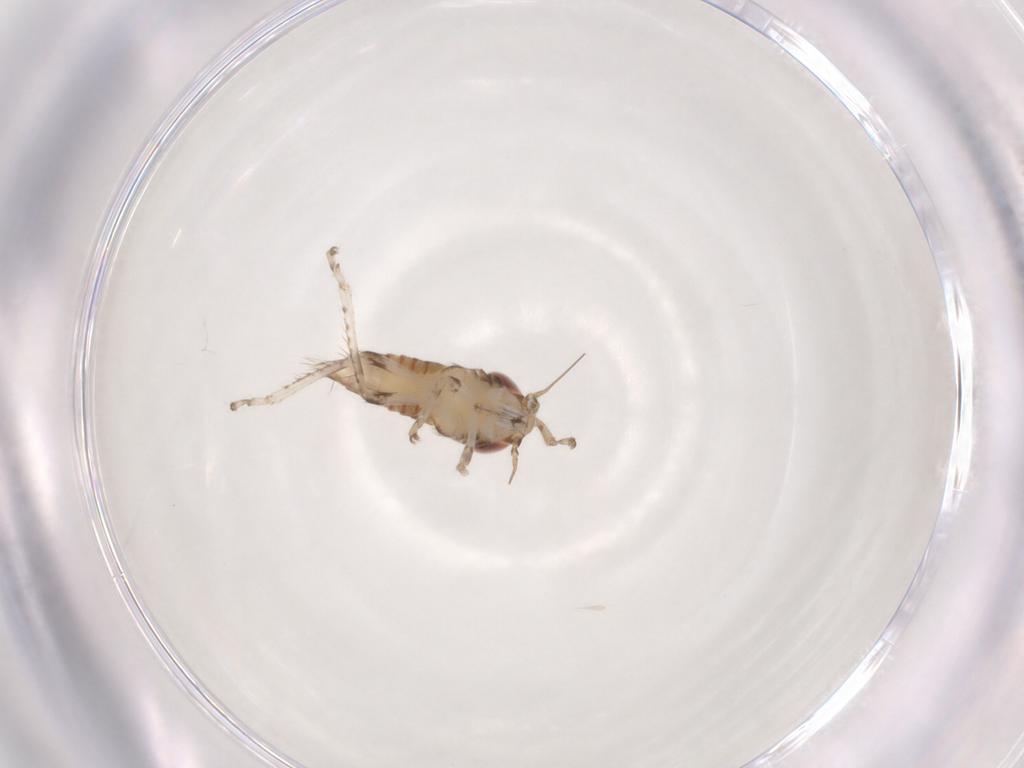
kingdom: Animalia
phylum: Arthropoda
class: Insecta
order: Hemiptera
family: Cicadellidae
